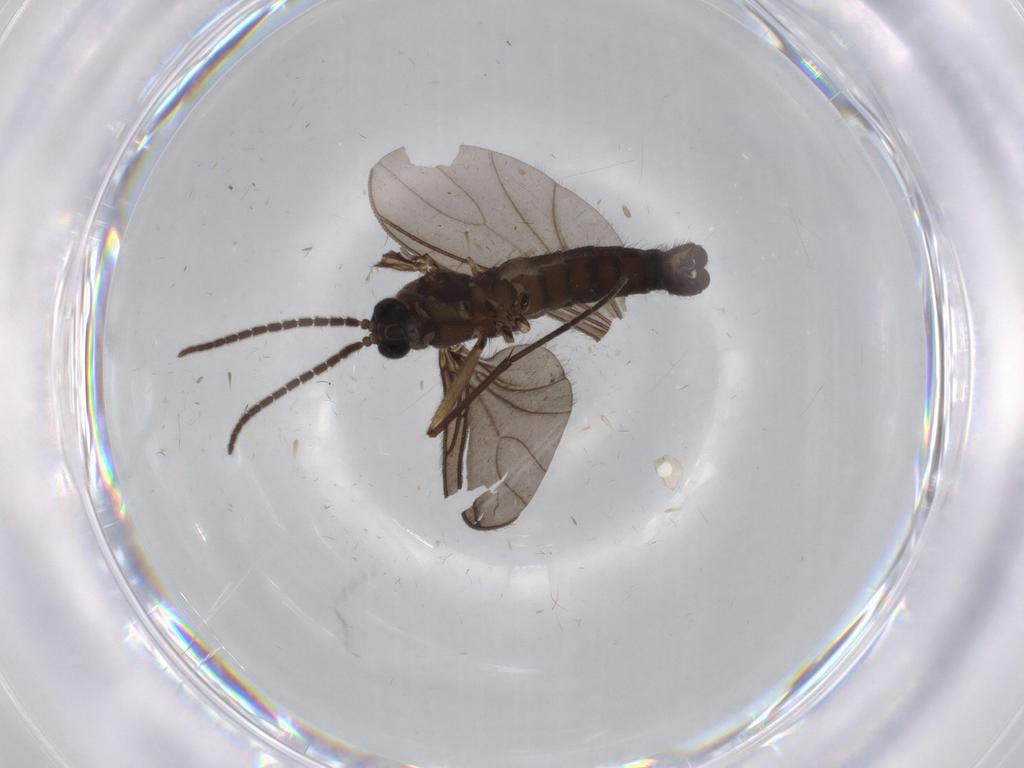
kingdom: Animalia
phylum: Arthropoda
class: Insecta
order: Diptera
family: Sciaridae
